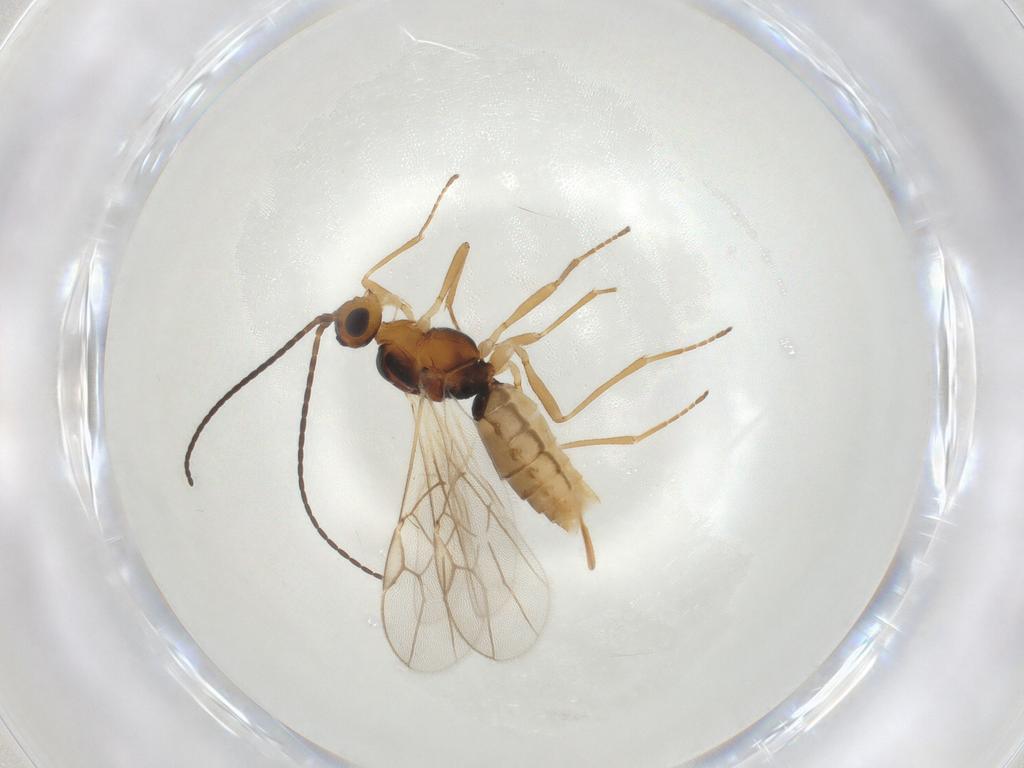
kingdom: Animalia
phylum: Arthropoda
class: Insecta
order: Hymenoptera
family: Braconidae
